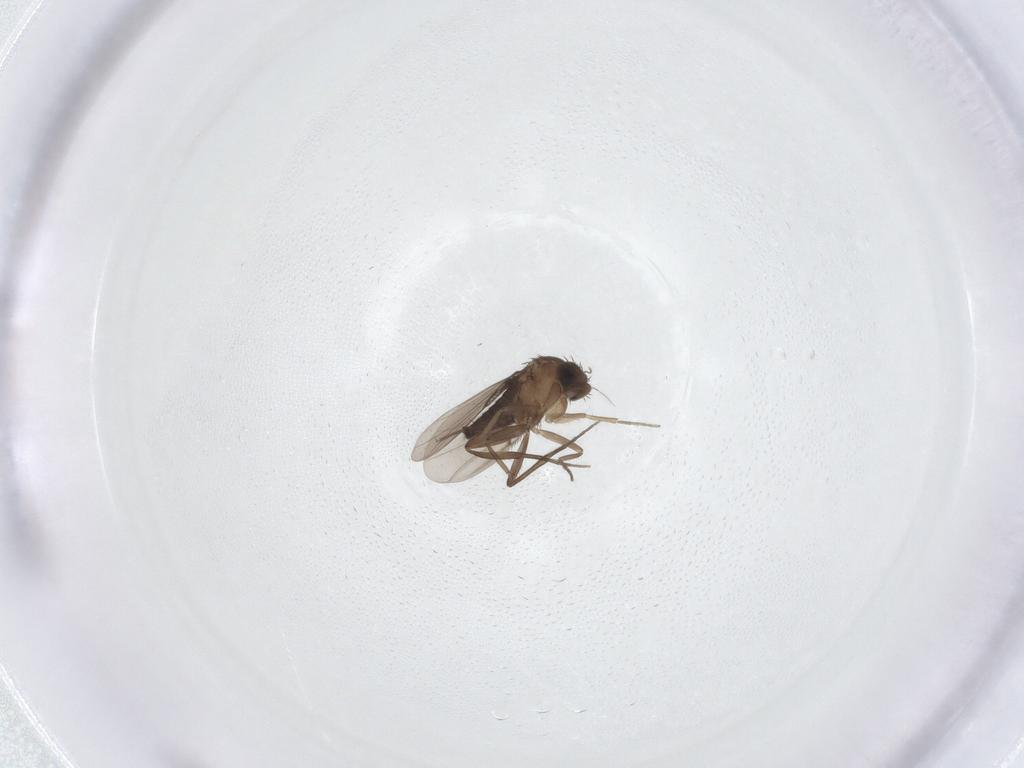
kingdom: Animalia
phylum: Arthropoda
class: Insecta
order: Diptera
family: Phoridae
